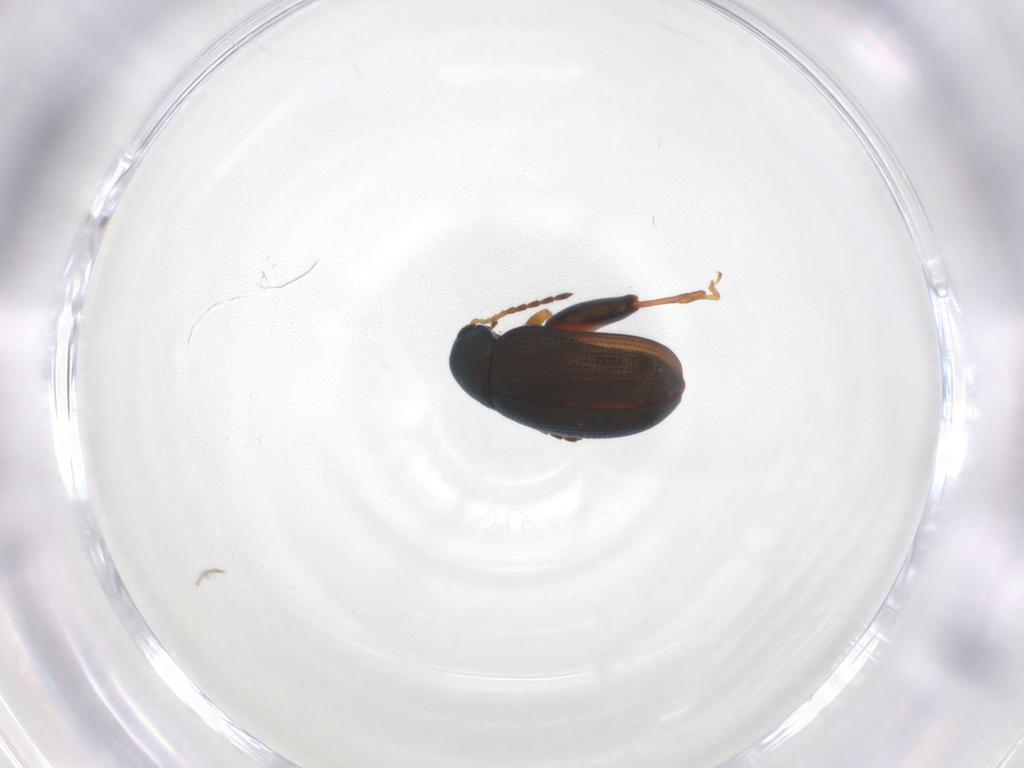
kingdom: Animalia
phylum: Arthropoda
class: Insecta
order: Coleoptera
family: Chrysomelidae
